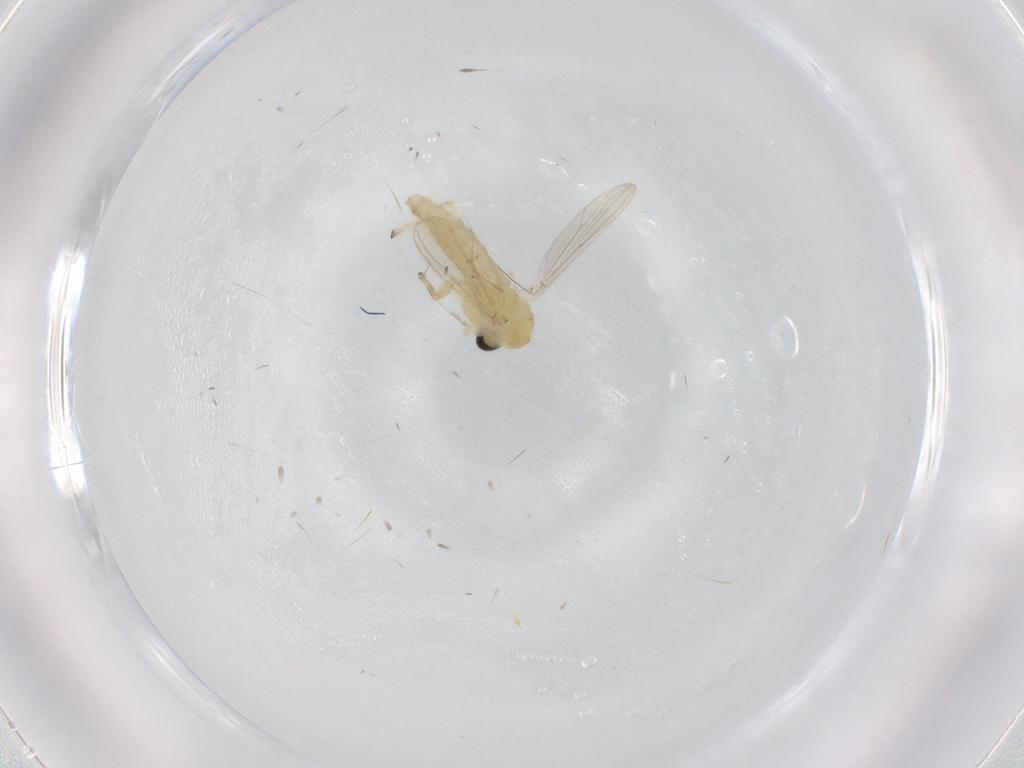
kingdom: Animalia
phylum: Arthropoda
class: Insecta
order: Diptera
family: Chironomidae
